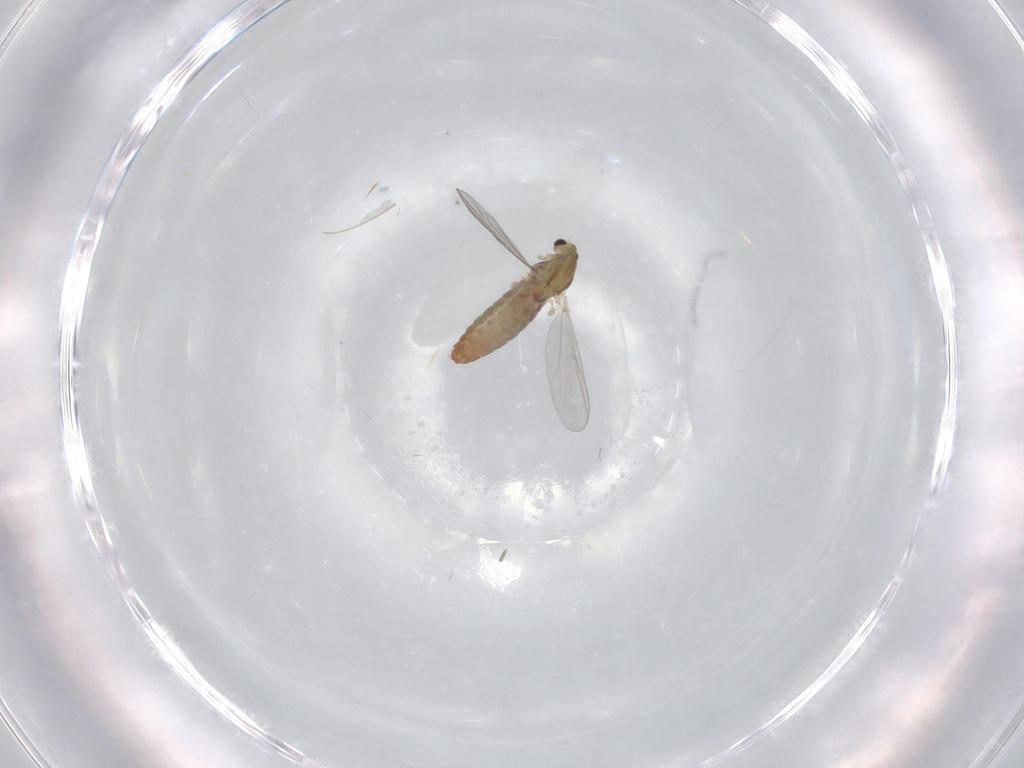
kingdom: Animalia
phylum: Arthropoda
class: Insecta
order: Diptera
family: Chironomidae
